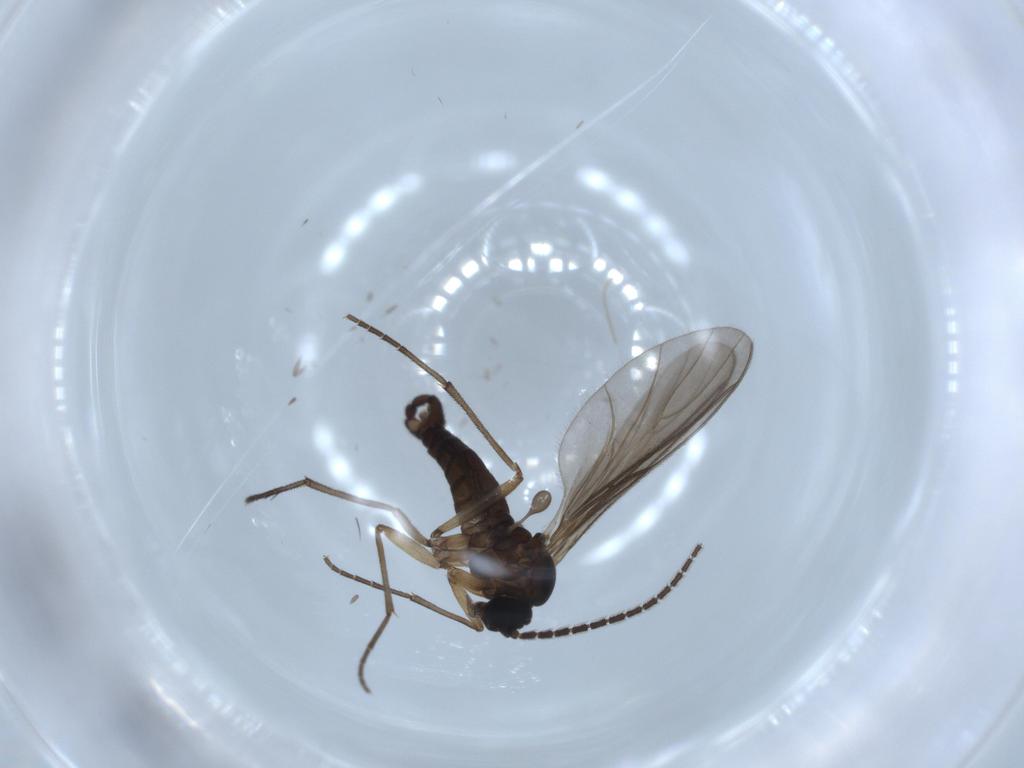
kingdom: Animalia
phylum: Arthropoda
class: Insecta
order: Diptera
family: Sciaridae
